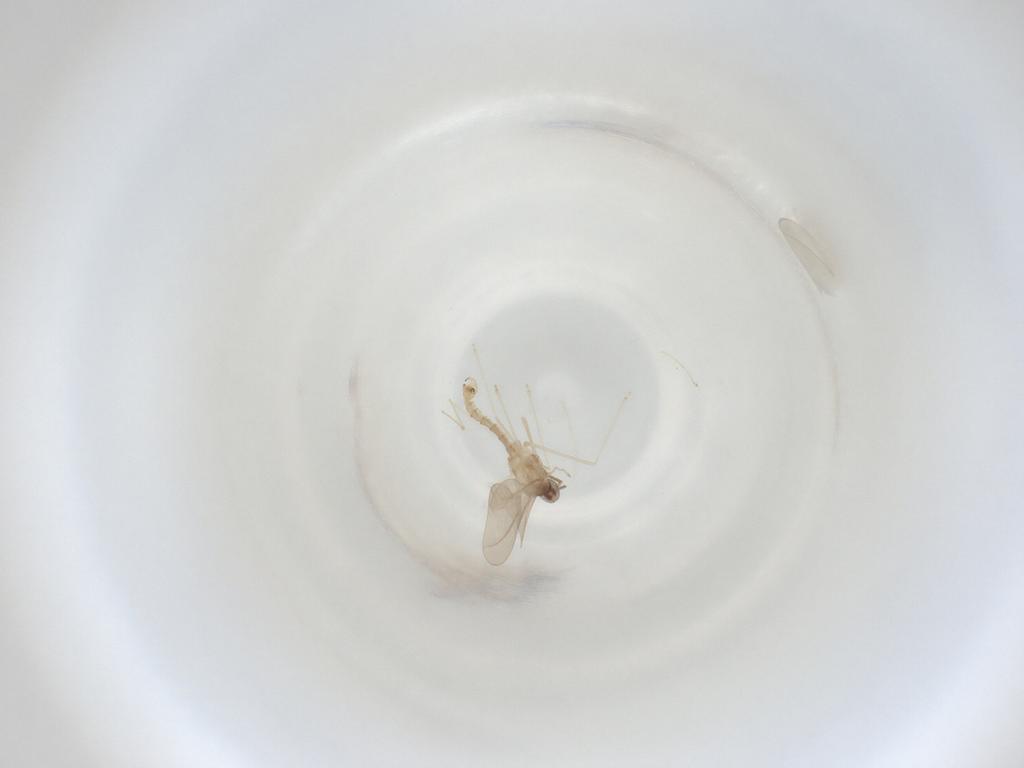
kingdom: Animalia
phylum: Arthropoda
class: Insecta
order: Diptera
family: Cecidomyiidae
